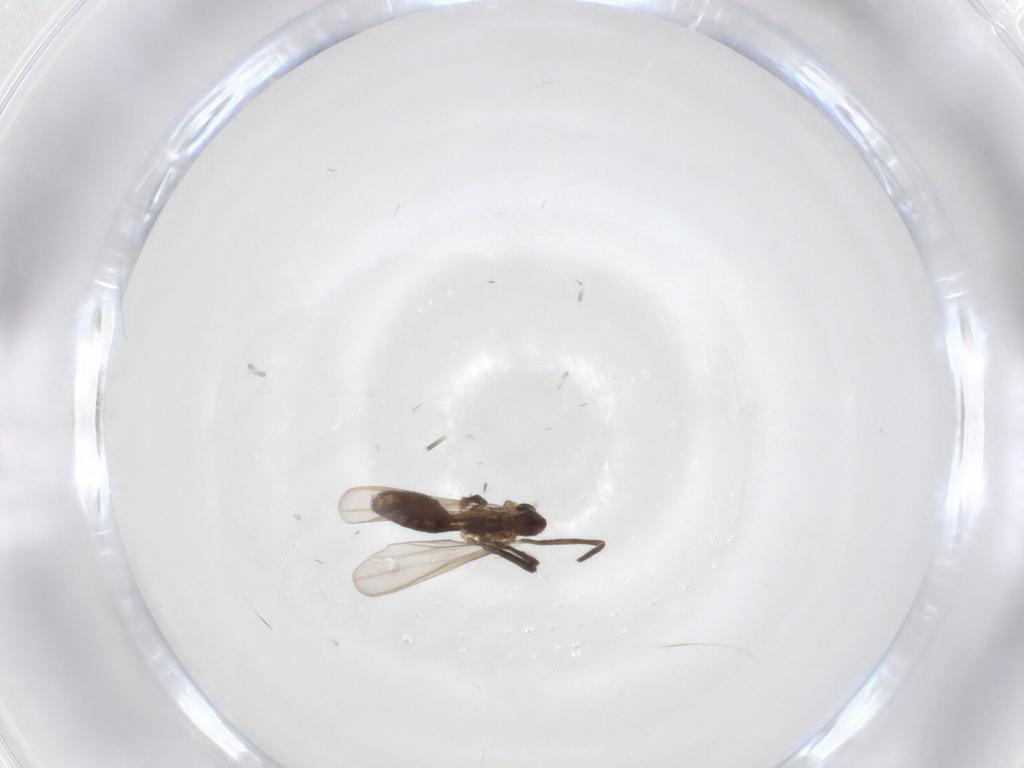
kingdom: Animalia
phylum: Arthropoda
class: Insecta
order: Diptera
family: Chironomidae
